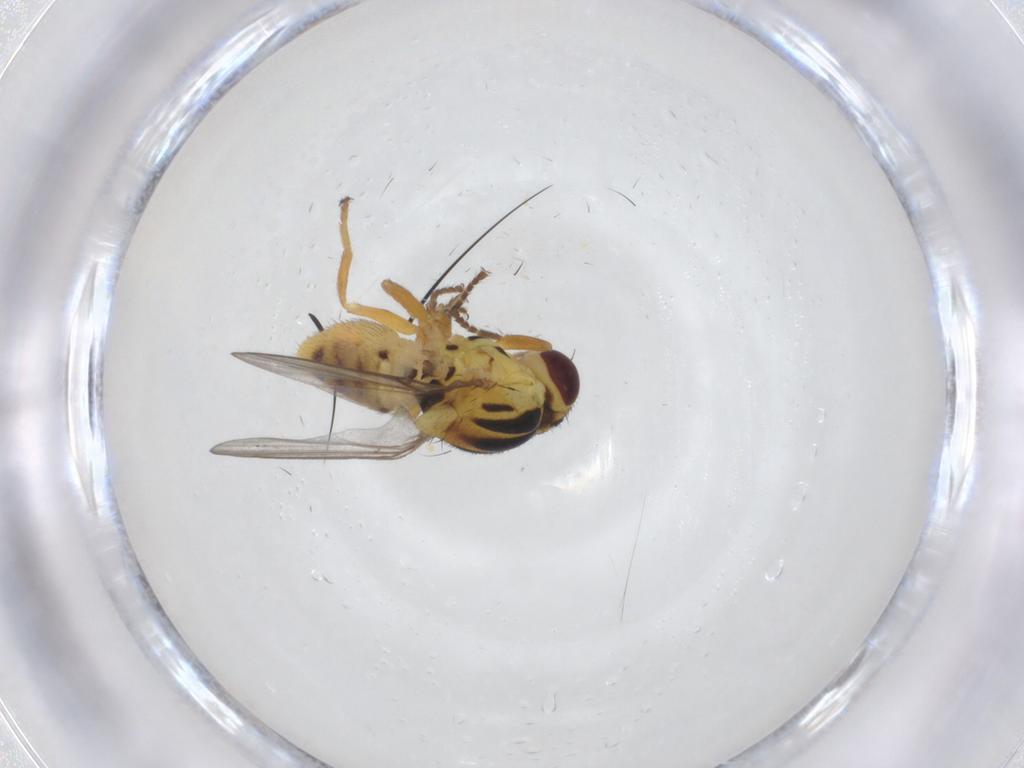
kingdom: Animalia
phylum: Arthropoda
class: Insecta
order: Diptera
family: Chloropidae
